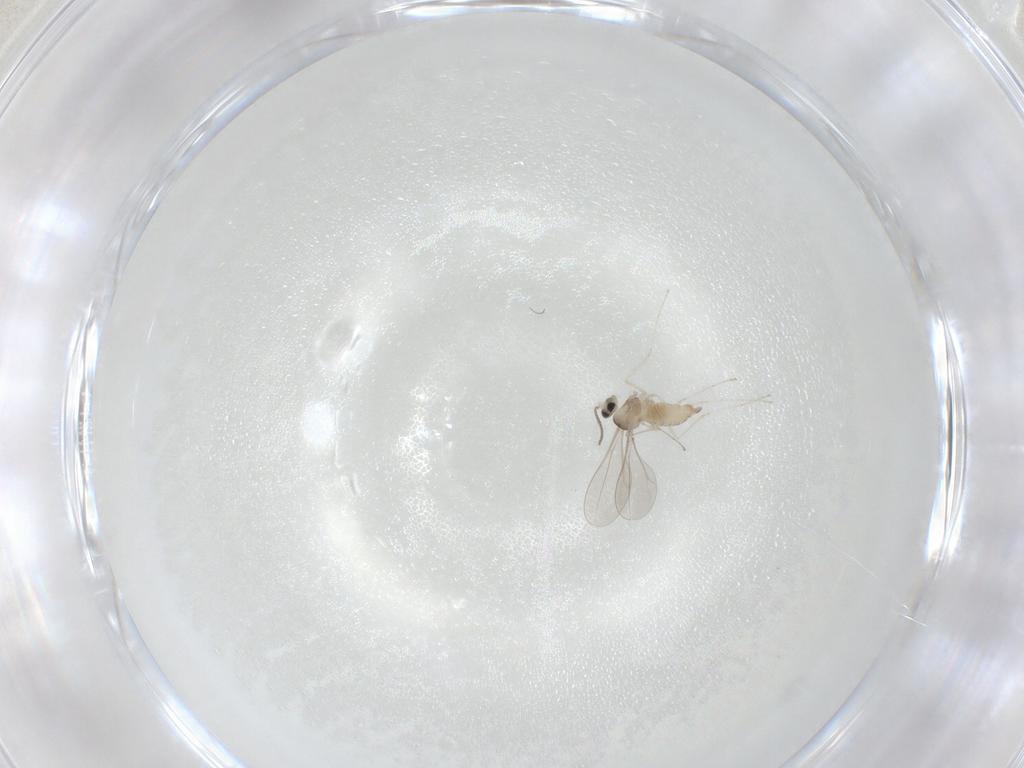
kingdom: Animalia
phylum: Arthropoda
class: Insecta
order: Diptera
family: Cecidomyiidae
